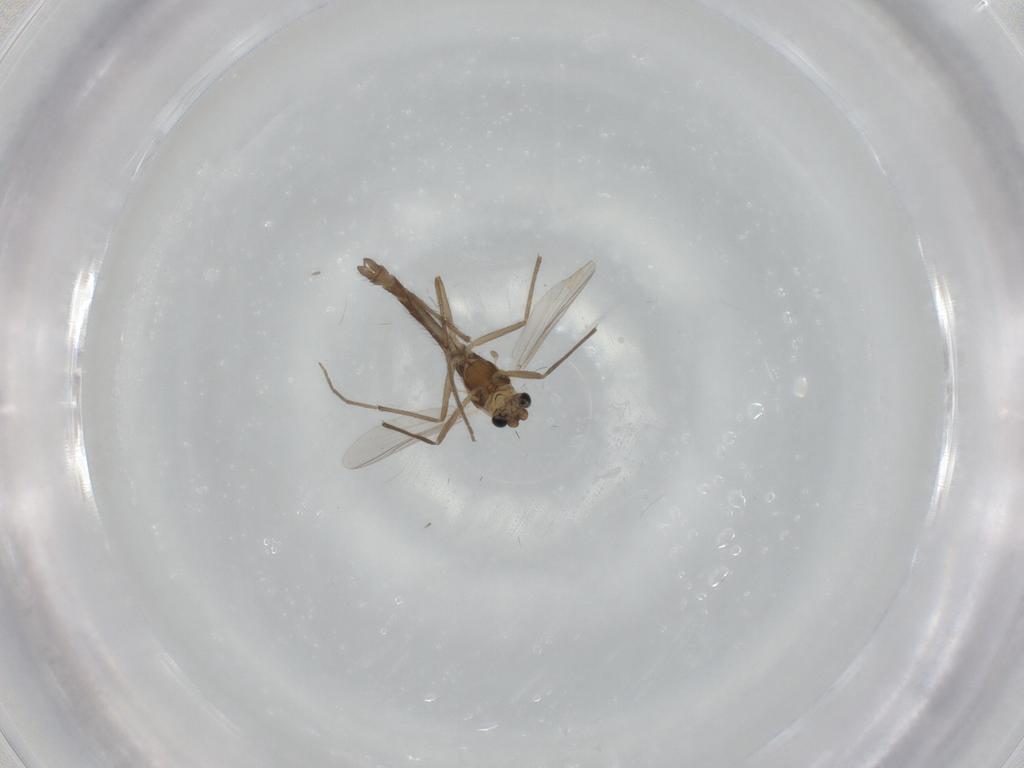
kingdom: Animalia
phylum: Arthropoda
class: Insecta
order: Diptera
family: Chironomidae
